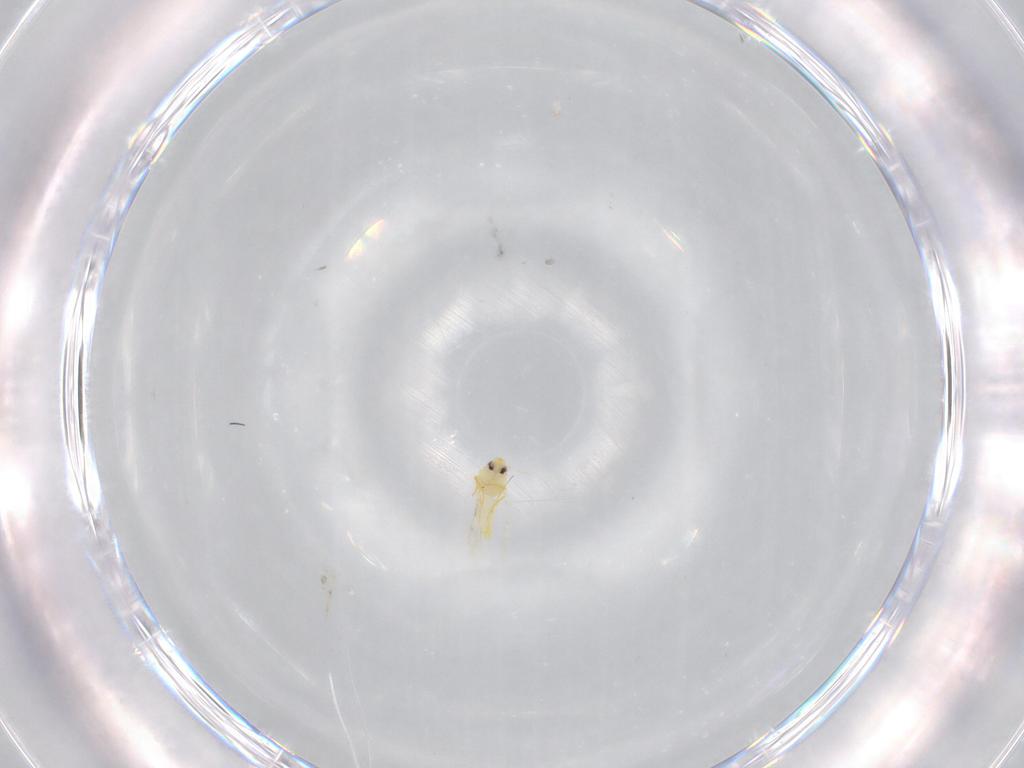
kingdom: Animalia
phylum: Arthropoda
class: Insecta
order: Hemiptera
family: Aleyrodidae
